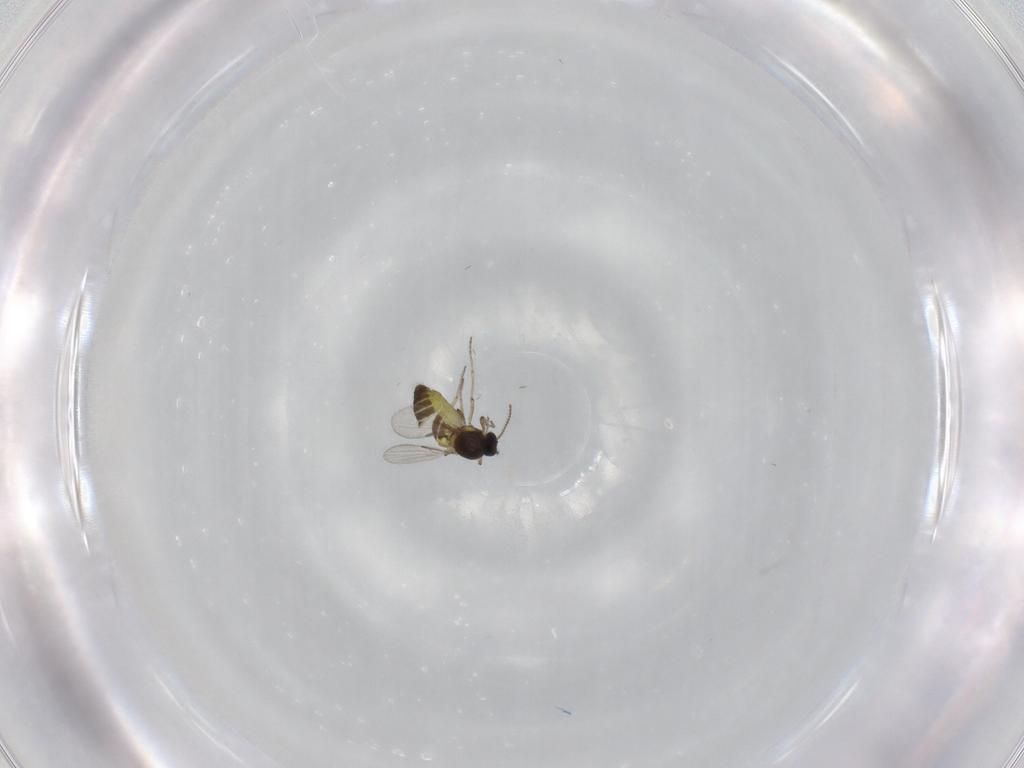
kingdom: Animalia
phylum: Arthropoda
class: Insecta
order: Diptera
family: Ceratopogonidae
